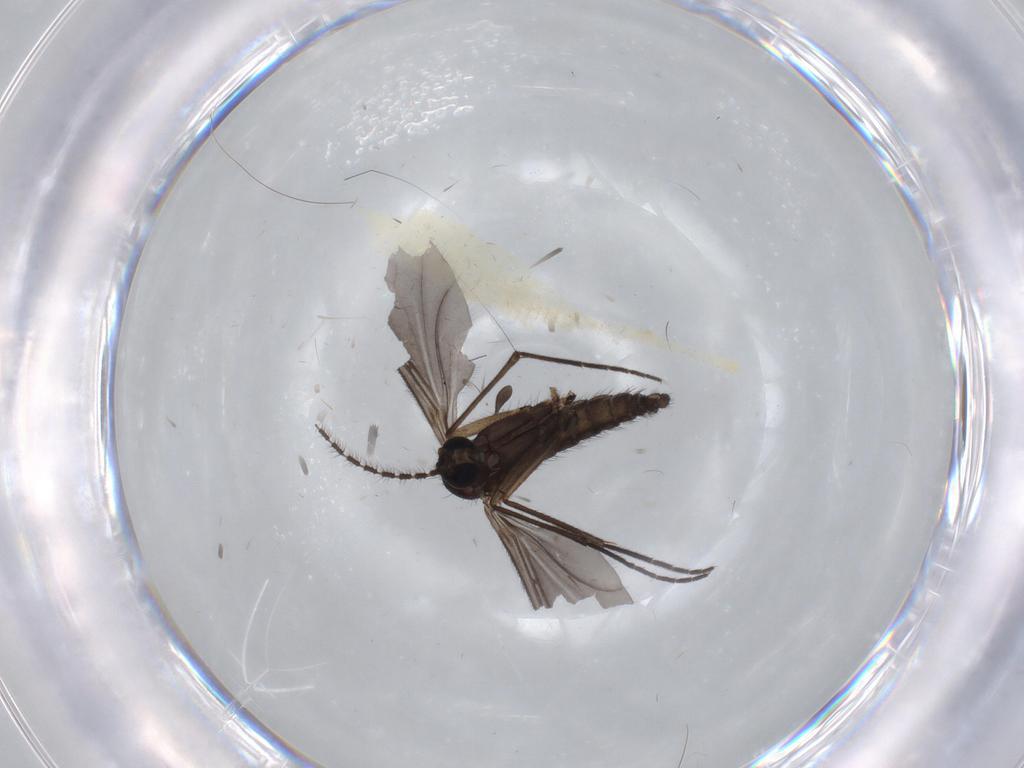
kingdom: Animalia
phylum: Arthropoda
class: Insecta
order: Diptera
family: Sciaridae
